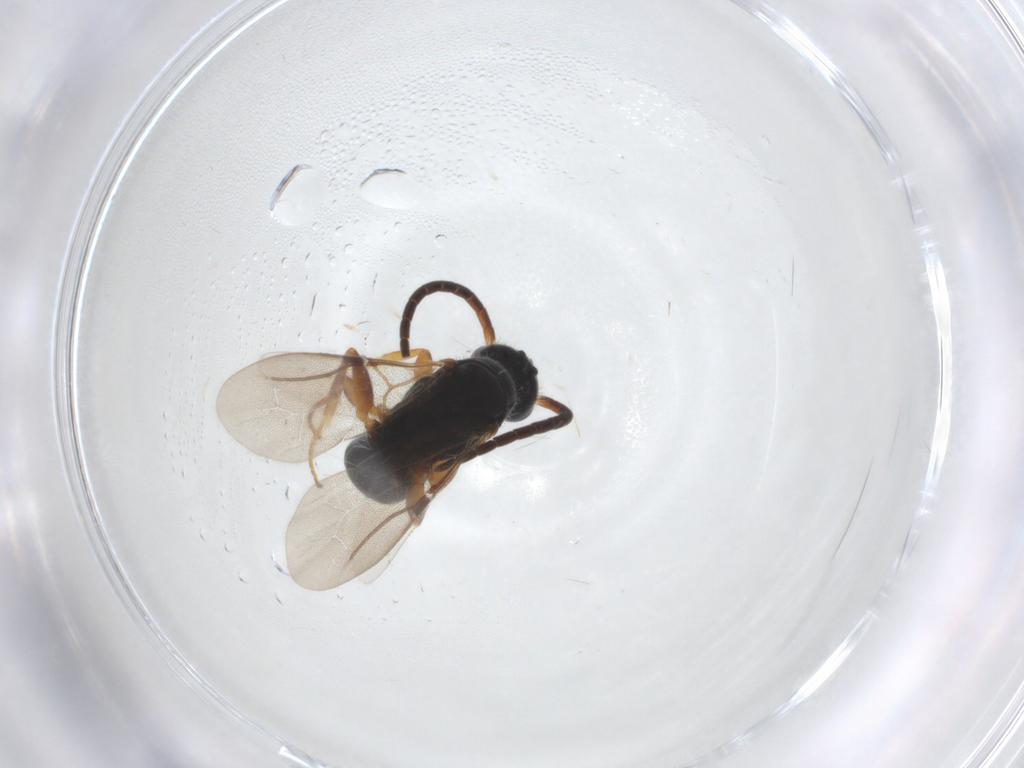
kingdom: Animalia
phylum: Arthropoda
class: Insecta
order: Hymenoptera
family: Bethylidae
